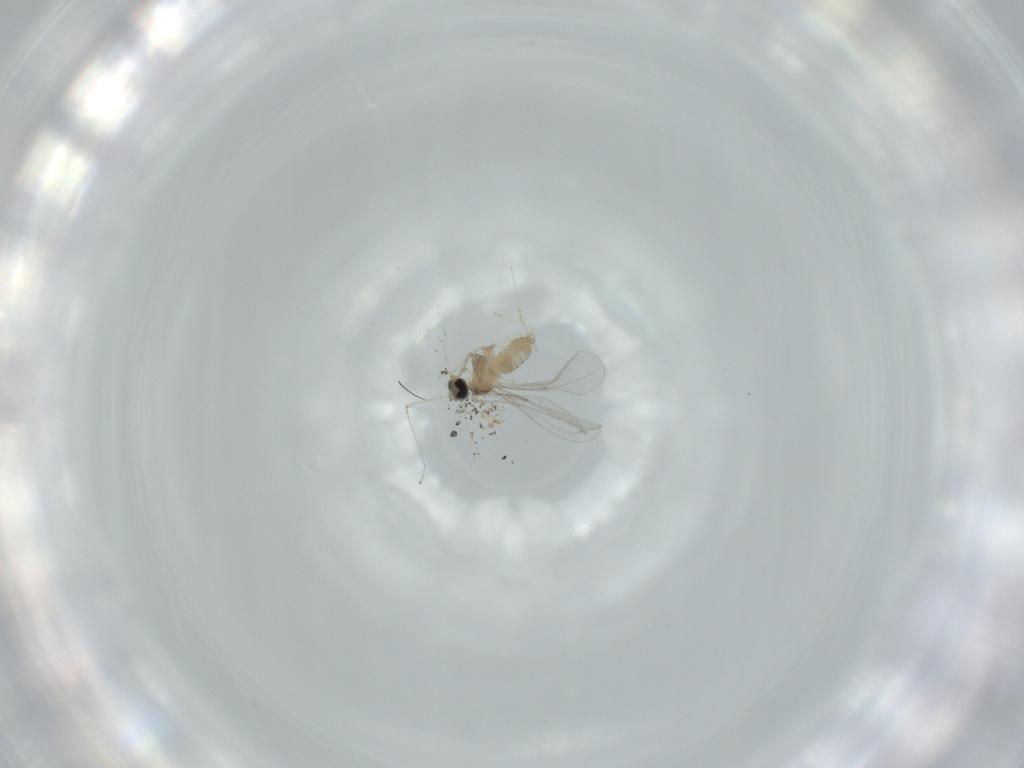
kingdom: Animalia
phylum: Arthropoda
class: Insecta
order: Diptera
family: Cecidomyiidae
